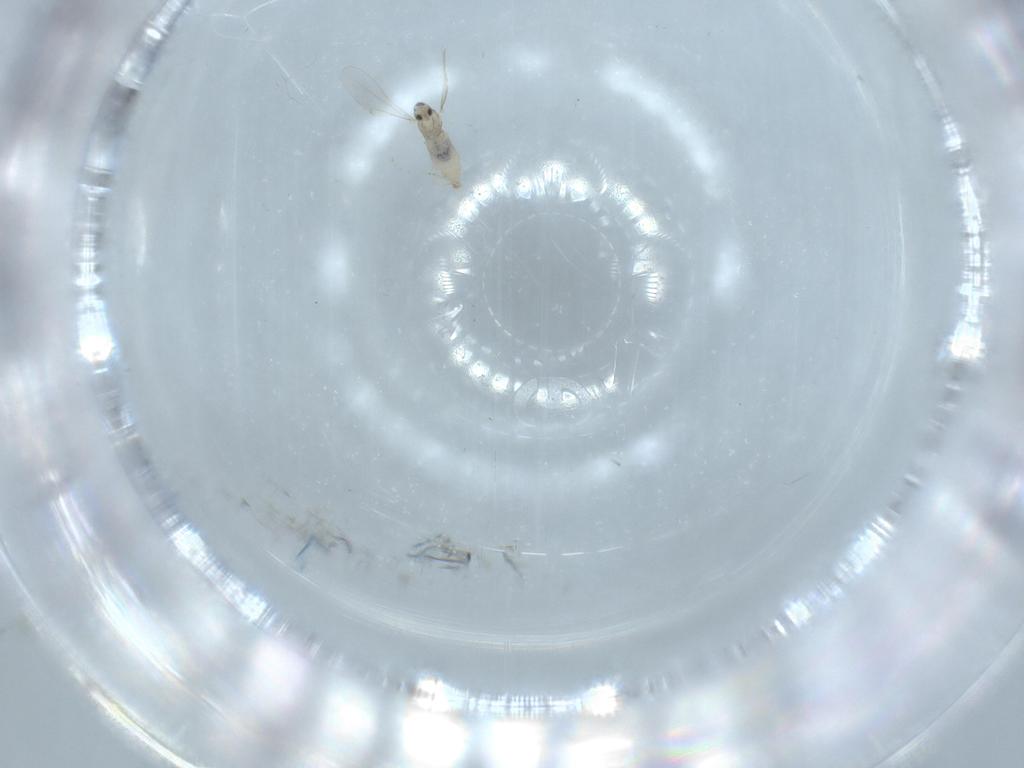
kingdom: Animalia
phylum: Arthropoda
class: Insecta
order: Diptera
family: Cecidomyiidae
